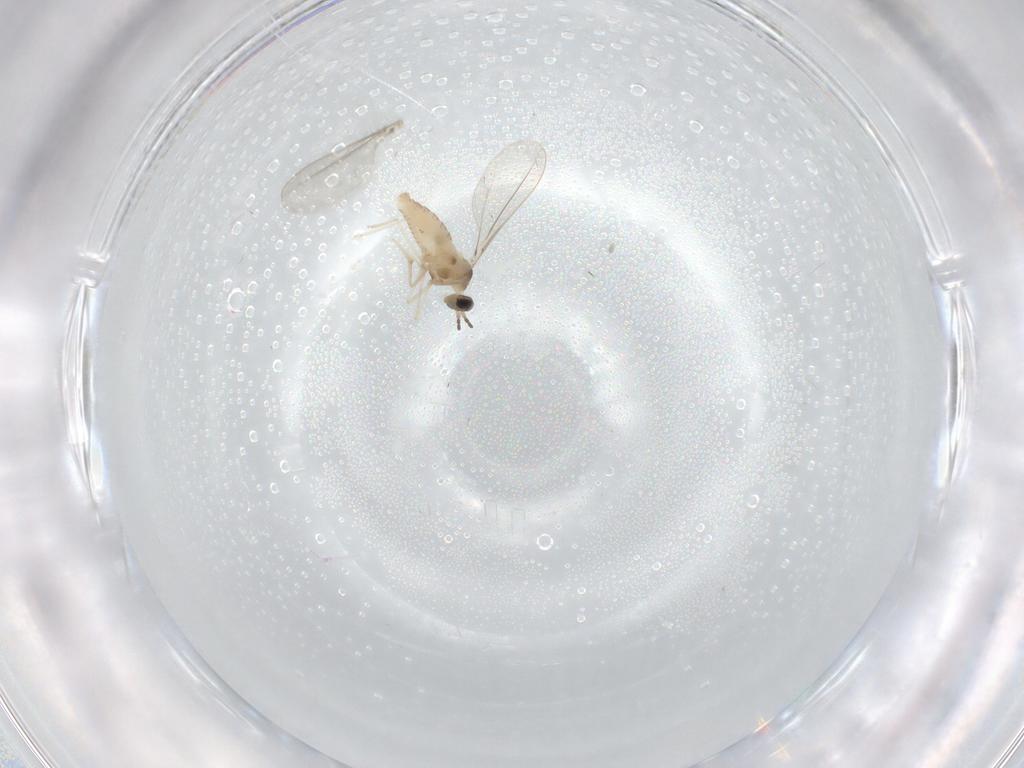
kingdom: Animalia
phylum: Arthropoda
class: Insecta
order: Diptera
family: Cecidomyiidae
